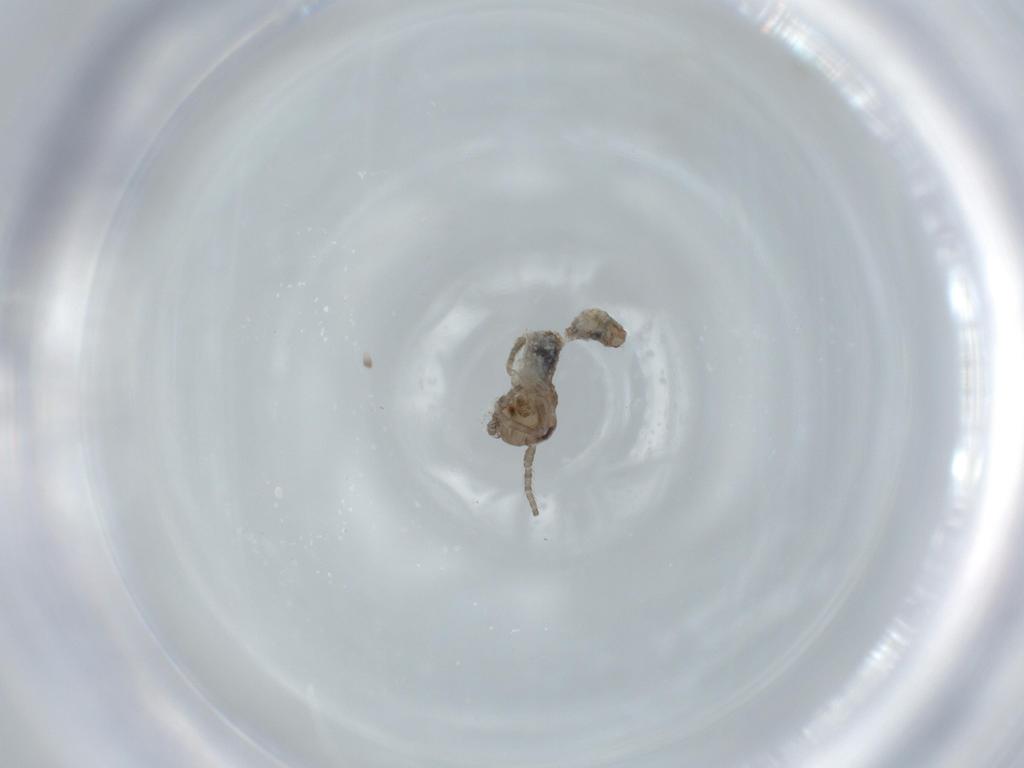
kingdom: Animalia
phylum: Arthropoda
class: Insecta
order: Orthoptera
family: Gryllidae
